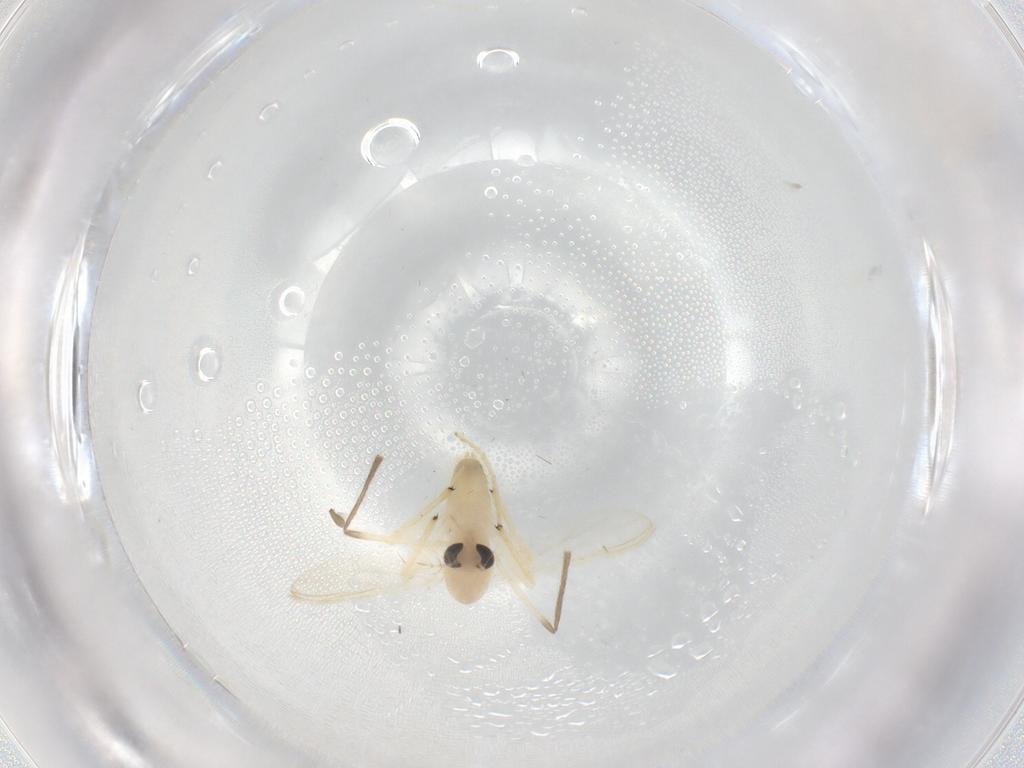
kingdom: Animalia
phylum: Arthropoda
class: Insecta
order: Diptera
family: Chironomidae
